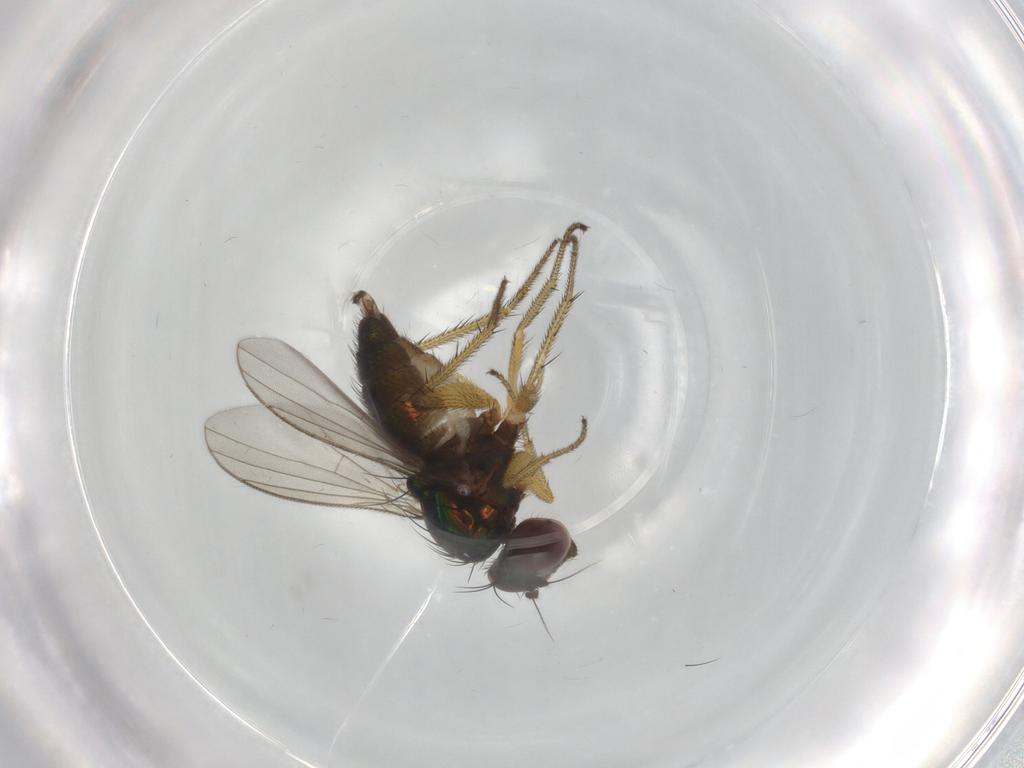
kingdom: Animalia
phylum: Arthropoda
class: Insecta
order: Diptera
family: Dolichopodidae
